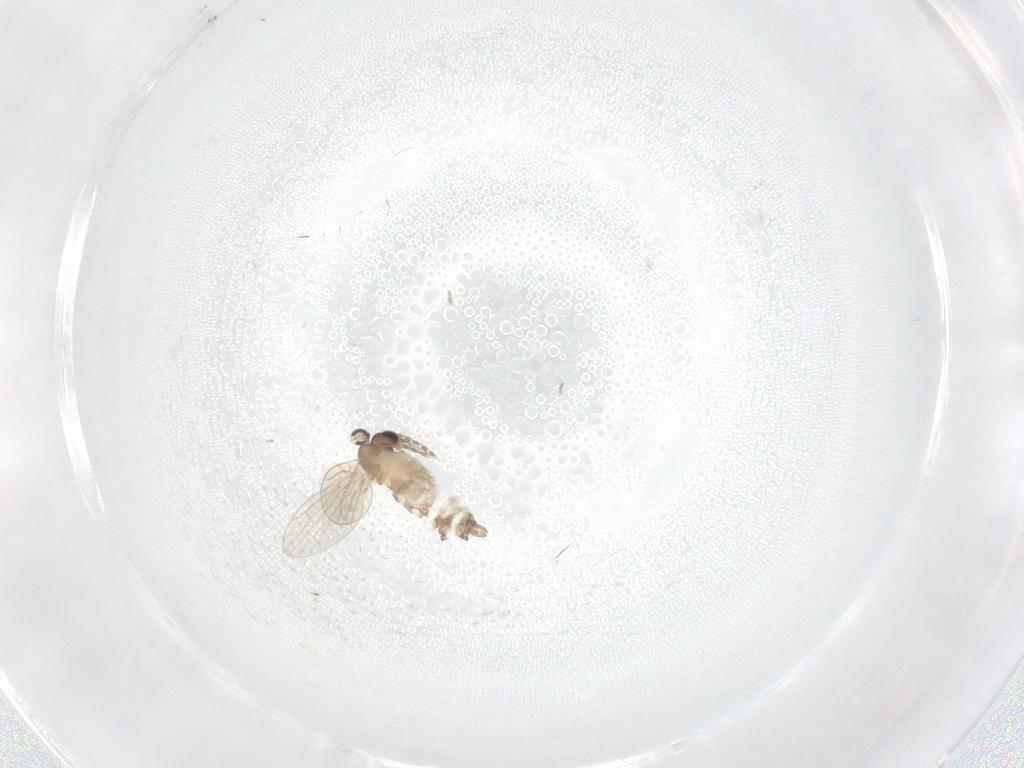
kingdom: Animalia
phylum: Arthropoda
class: Insecta
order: Diptera
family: Cecidomyiidae
